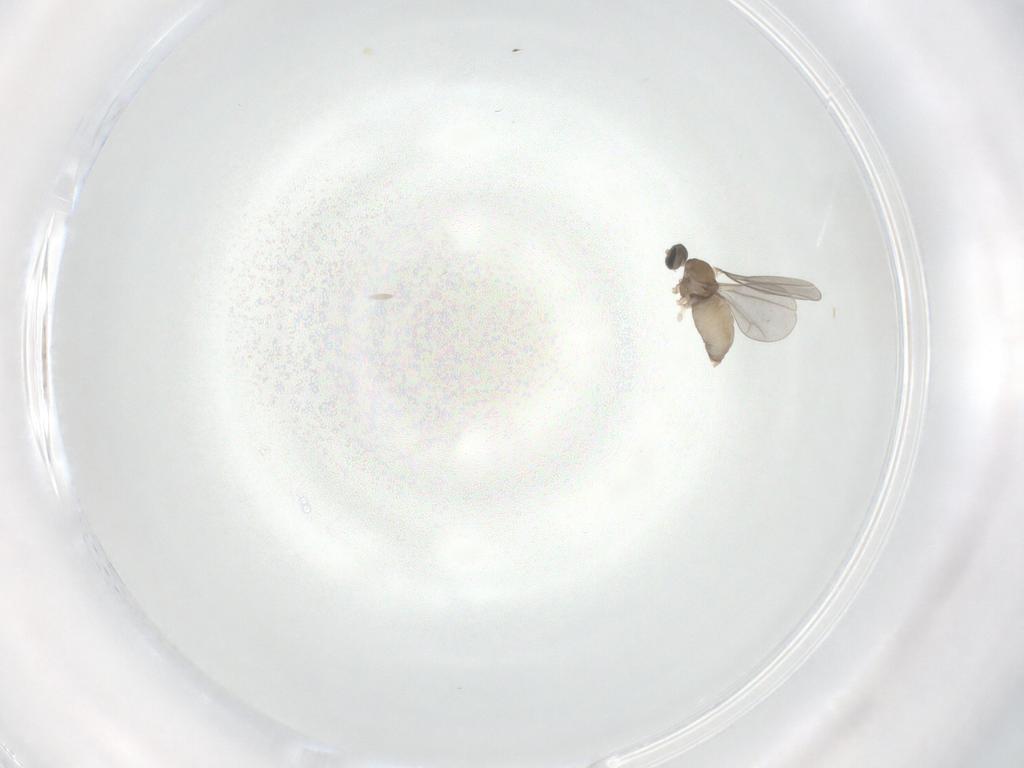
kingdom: Animalia
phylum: Arthropoda
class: Insecta
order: Diptera
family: Cecidomyiidae
